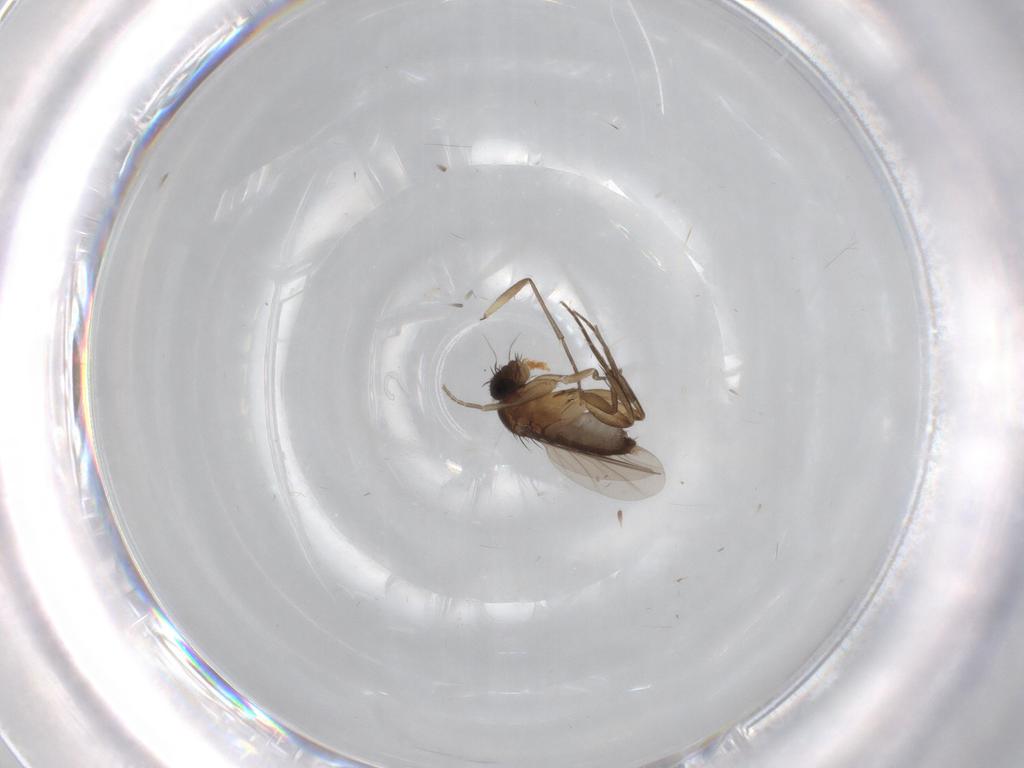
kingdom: Animalia
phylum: Arthropoda
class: Insecta
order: Diptera
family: Phoridae
